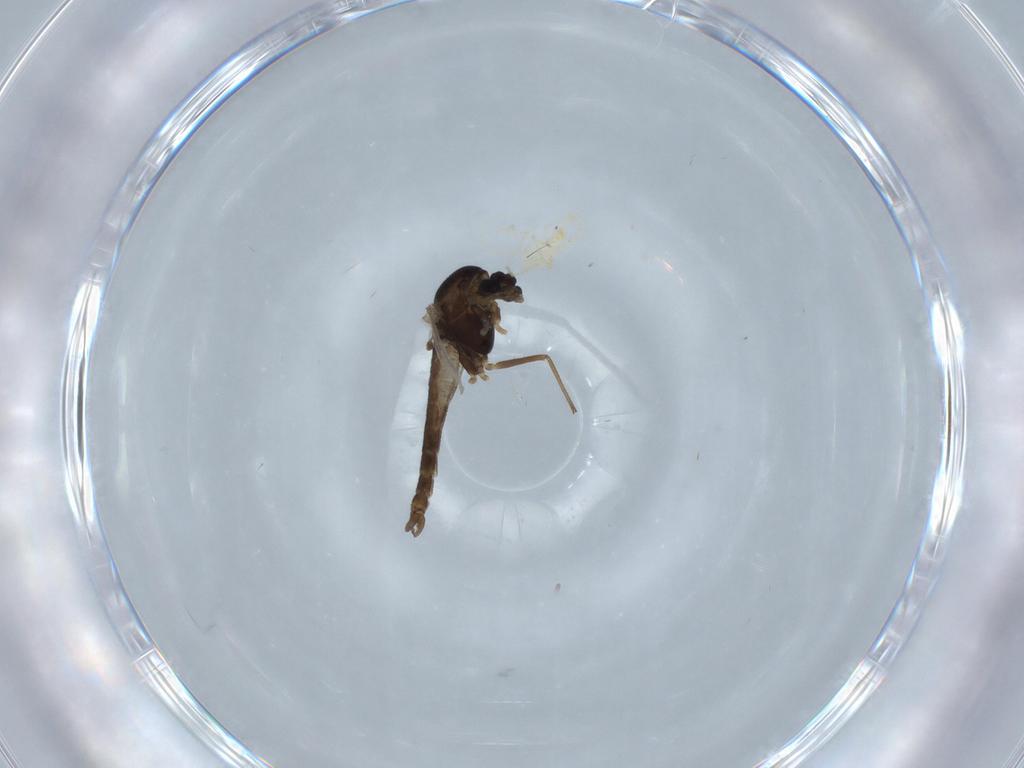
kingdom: Animalia
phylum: Arthropoda
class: Insecta
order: Diptera
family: Chironomidae
